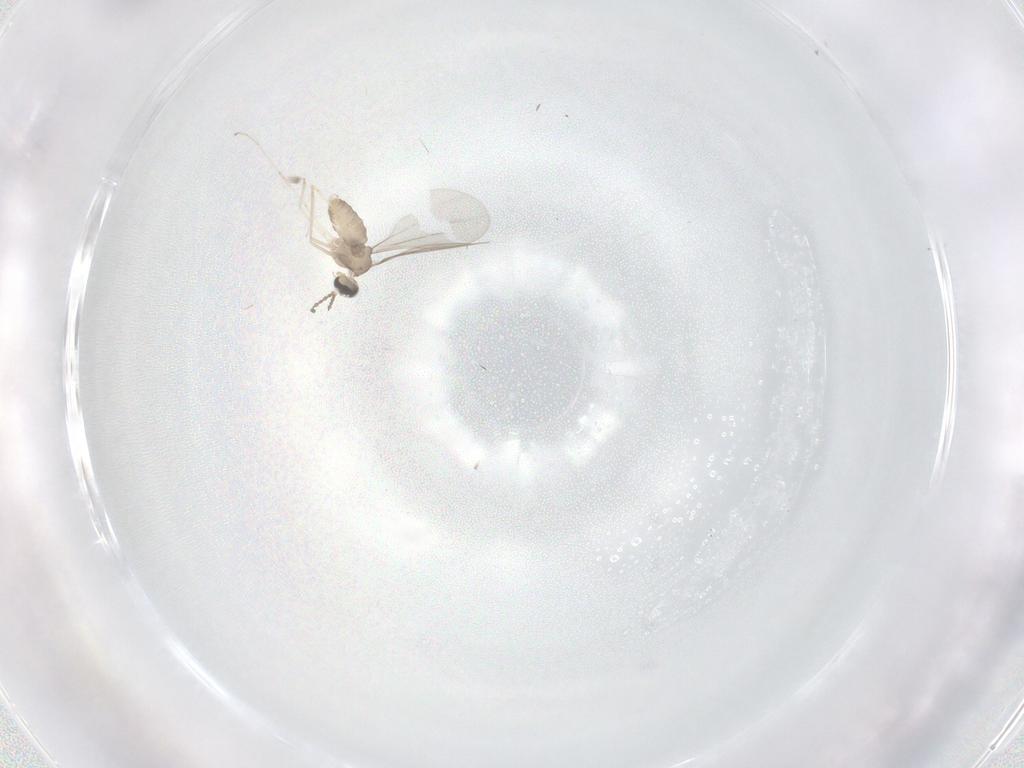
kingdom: Animalia
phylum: Arthropoda
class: Insecta
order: Diptera
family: Cecidomyiidae
